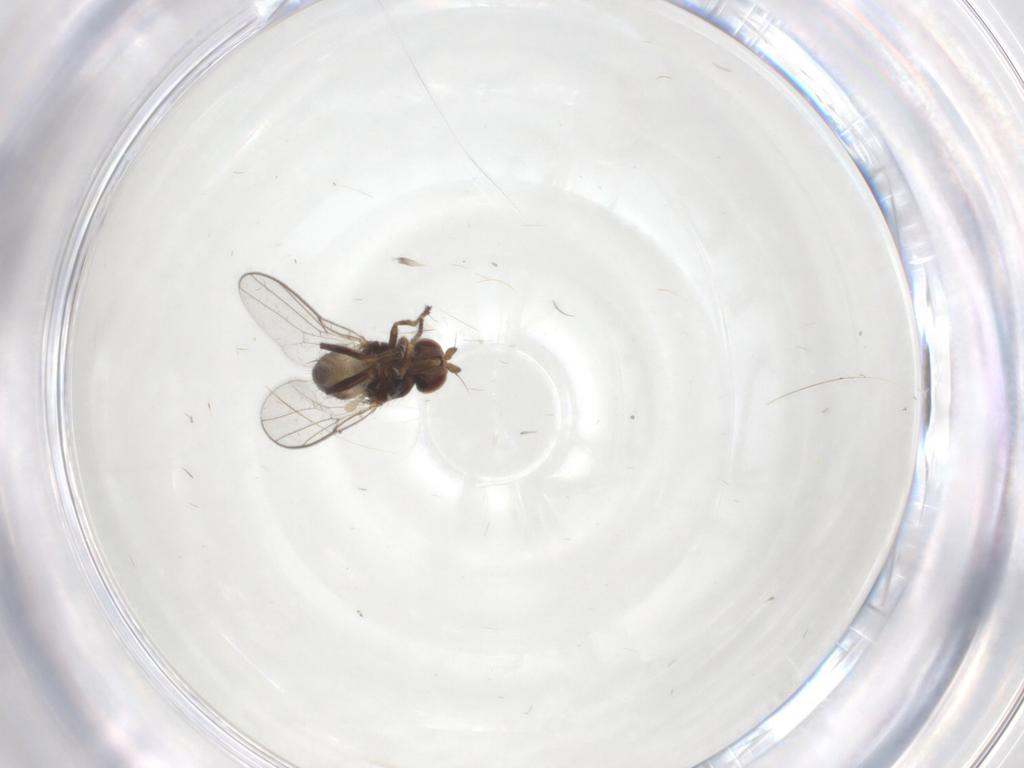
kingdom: Animalia
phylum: Arthropoda
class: Insecta
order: Diptera
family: Chloropidae
